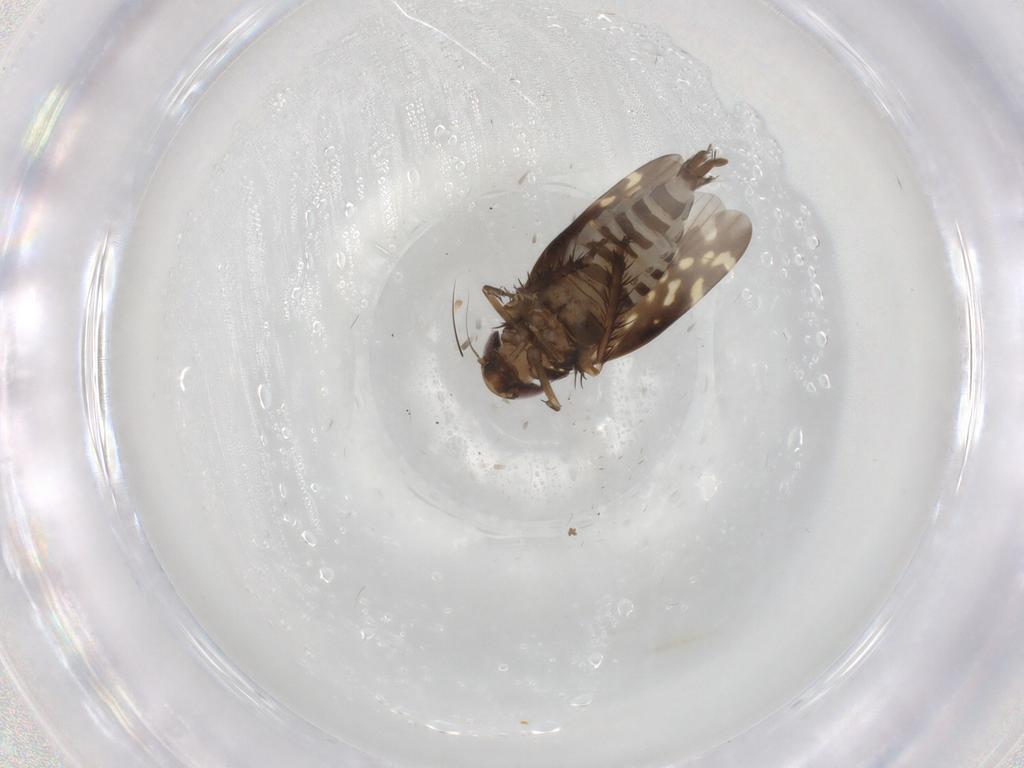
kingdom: Animalia
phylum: Arthropoda
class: Insecta
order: Hemiptera
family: Cicadellidae
